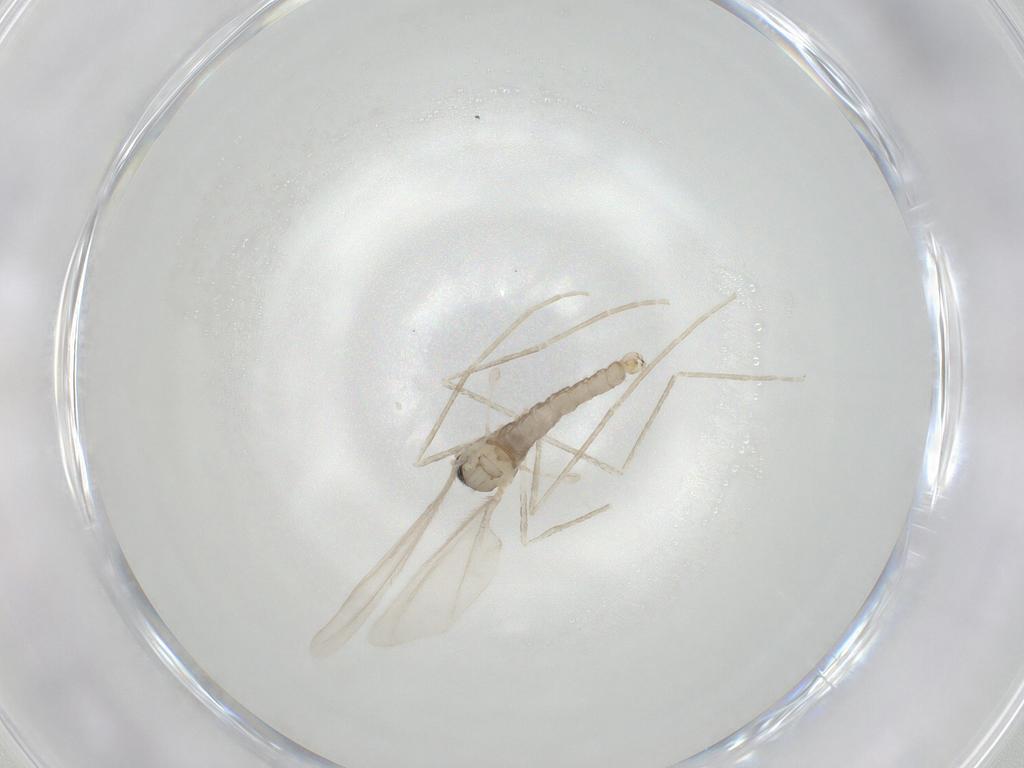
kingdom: Animalia
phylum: Arthropoda
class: Insecta
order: Diptera
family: Cecidomyiidae
